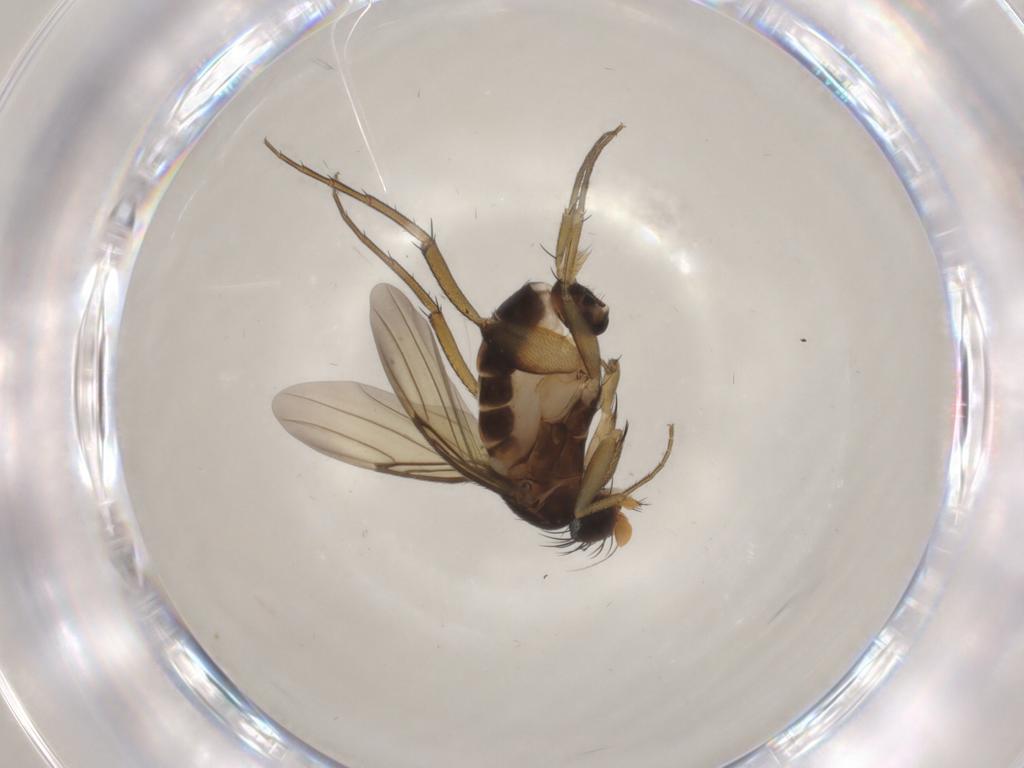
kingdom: Animalia
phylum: Arthropoda
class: Insecta
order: Diptera
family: Phoridae
